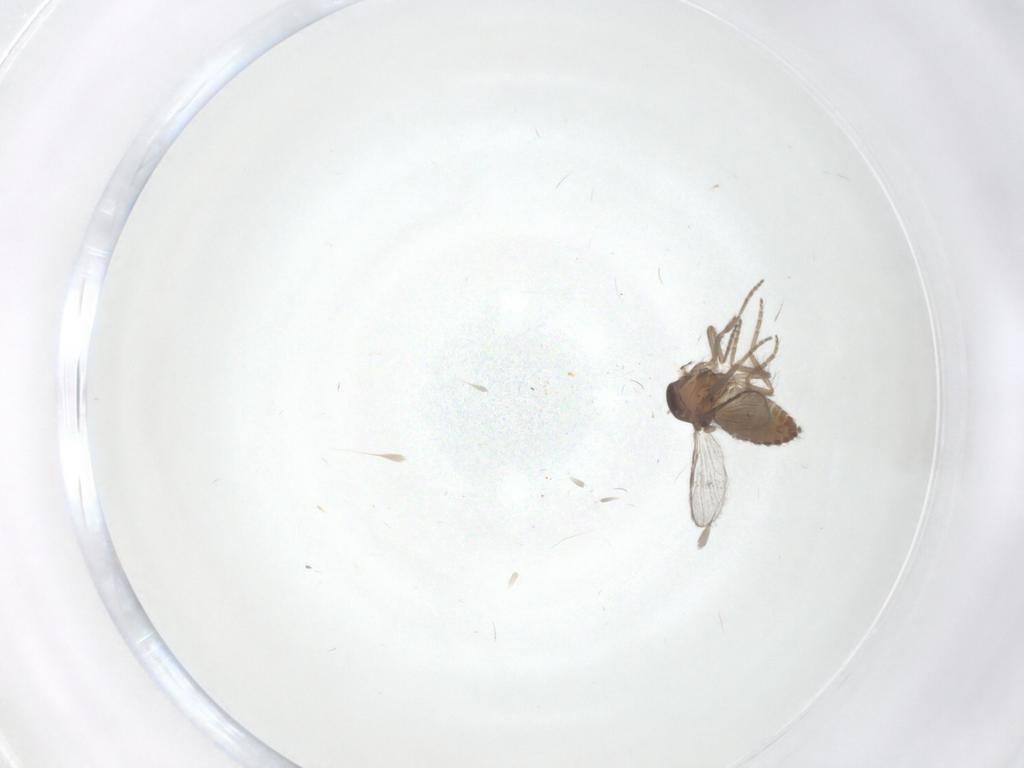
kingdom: Animalia
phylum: Arthropoda
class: Insecta
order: Diptera
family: Ceratopogonidae
